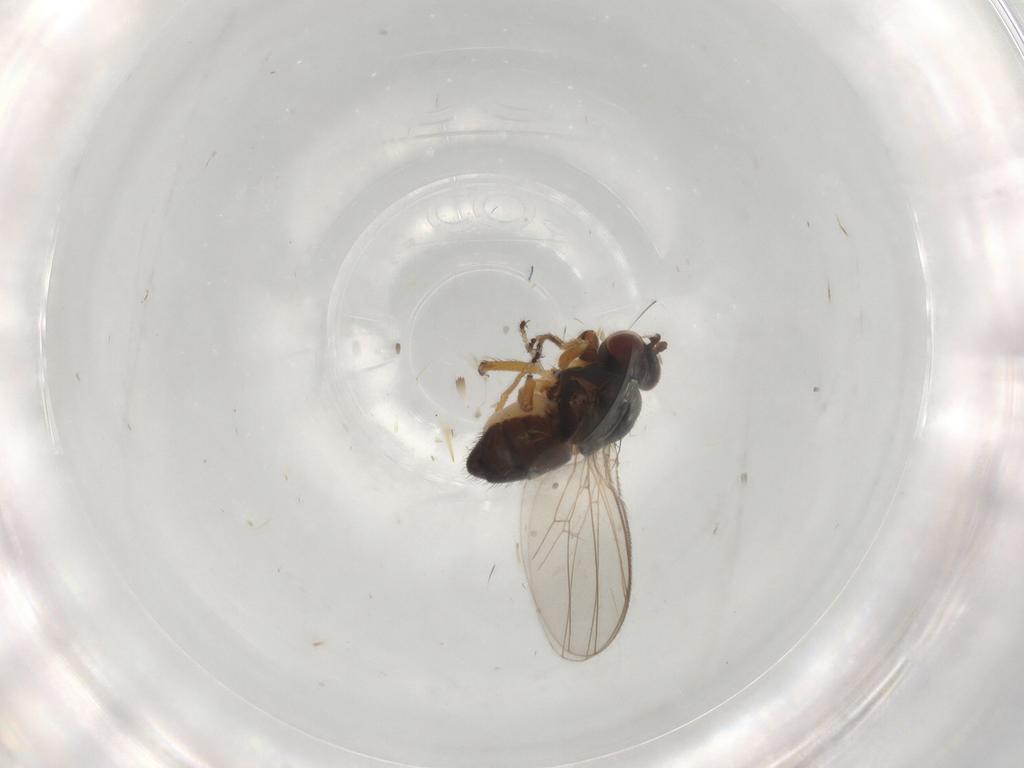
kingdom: Animalia
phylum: Arthropoda
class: Insecta
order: Diptera
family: Ephydridae
